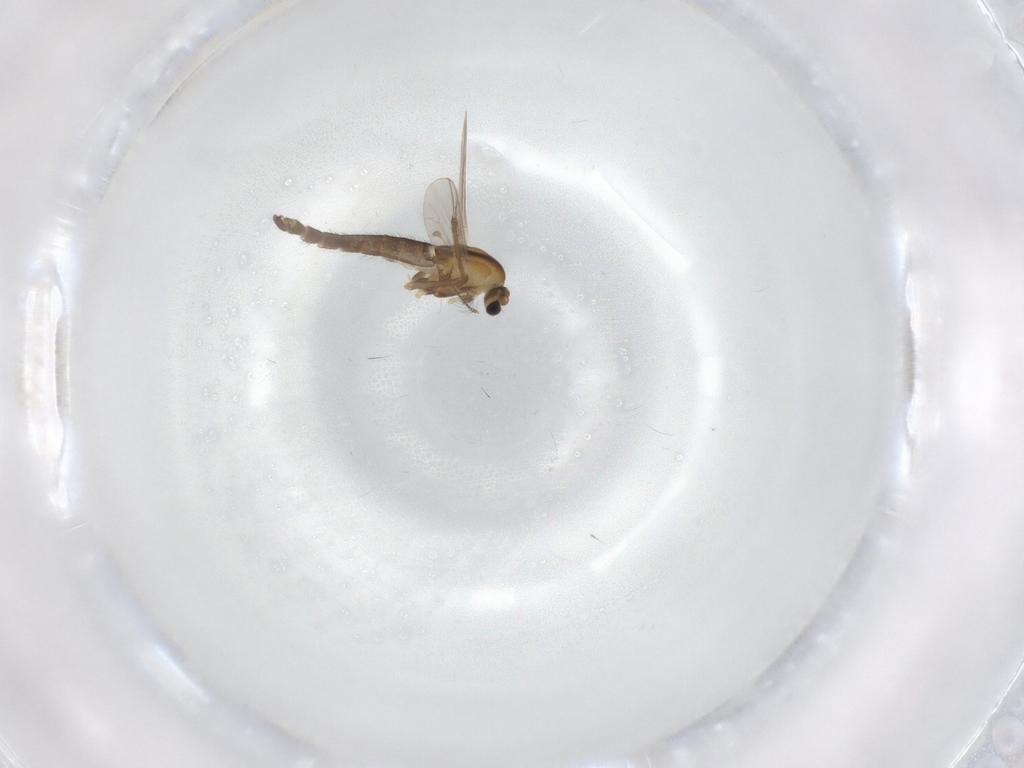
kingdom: Animalia
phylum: Arthropoda
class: Insecta
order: Diptera
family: Chironomidae
